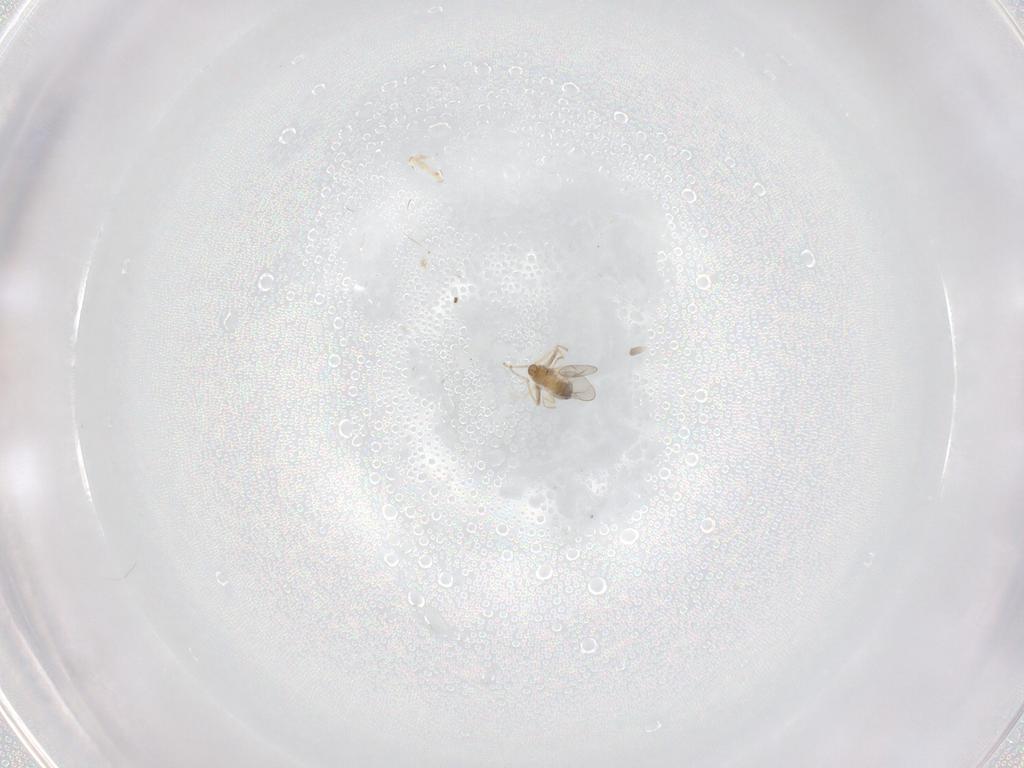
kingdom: Animalia
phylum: Arthropoda
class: Insecta
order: Diptera
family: Cecidomyiidae
